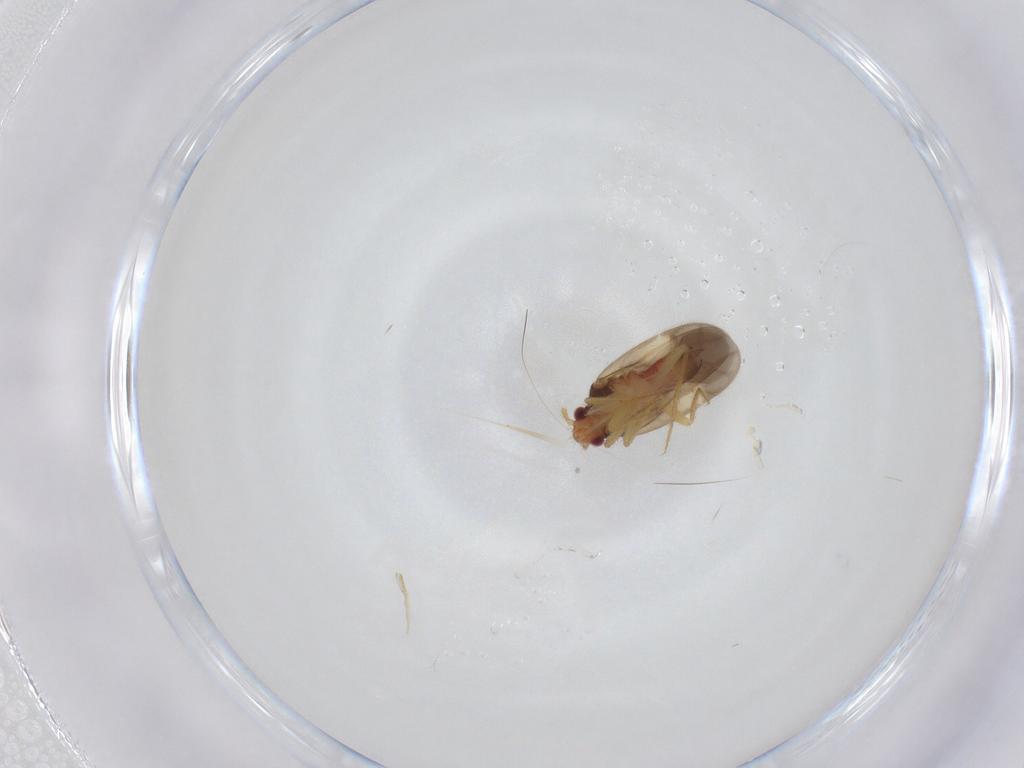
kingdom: Animalia
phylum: Arthropoda
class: Insecta
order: Hemiptera
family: Ceratocombidae
